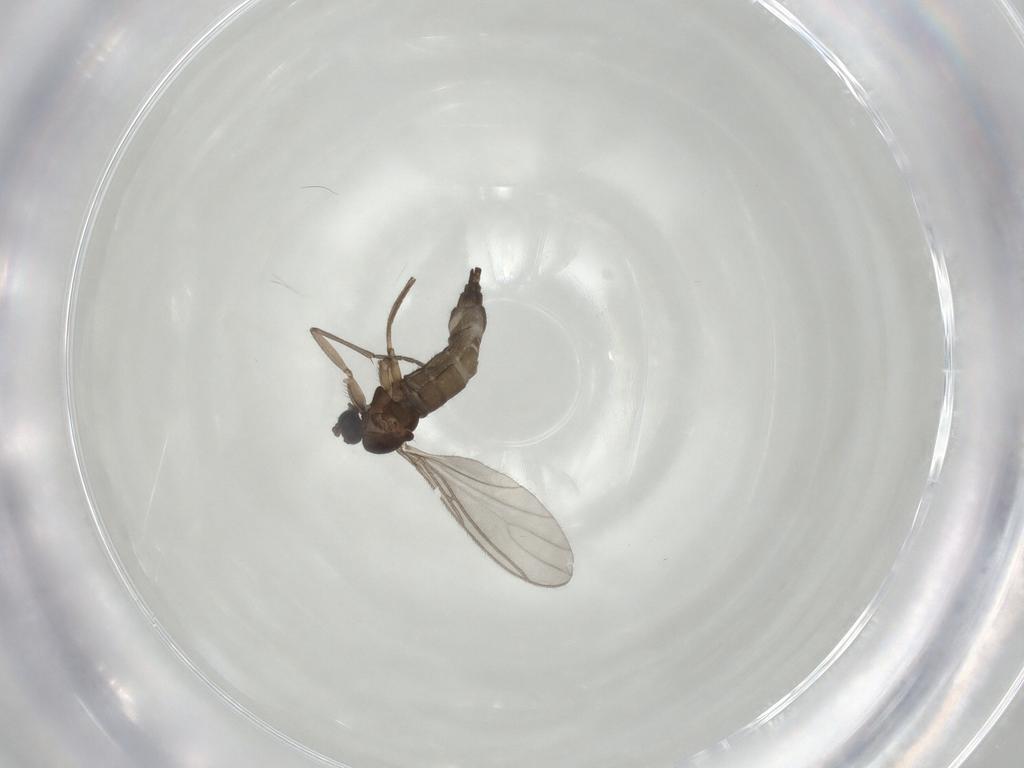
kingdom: Animalia
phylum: Arthropoda
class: Insecta
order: Diptera
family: Sciaridae
